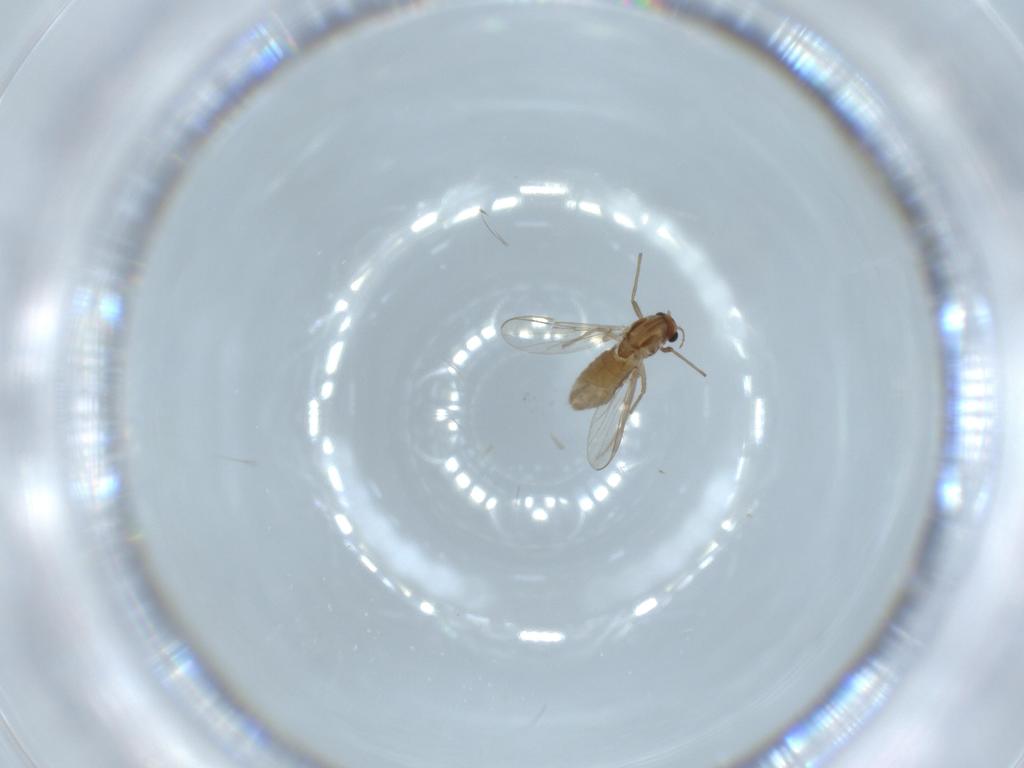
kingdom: Animalia
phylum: Arthropoda
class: Insecta
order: Diptera
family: Chironomidae
